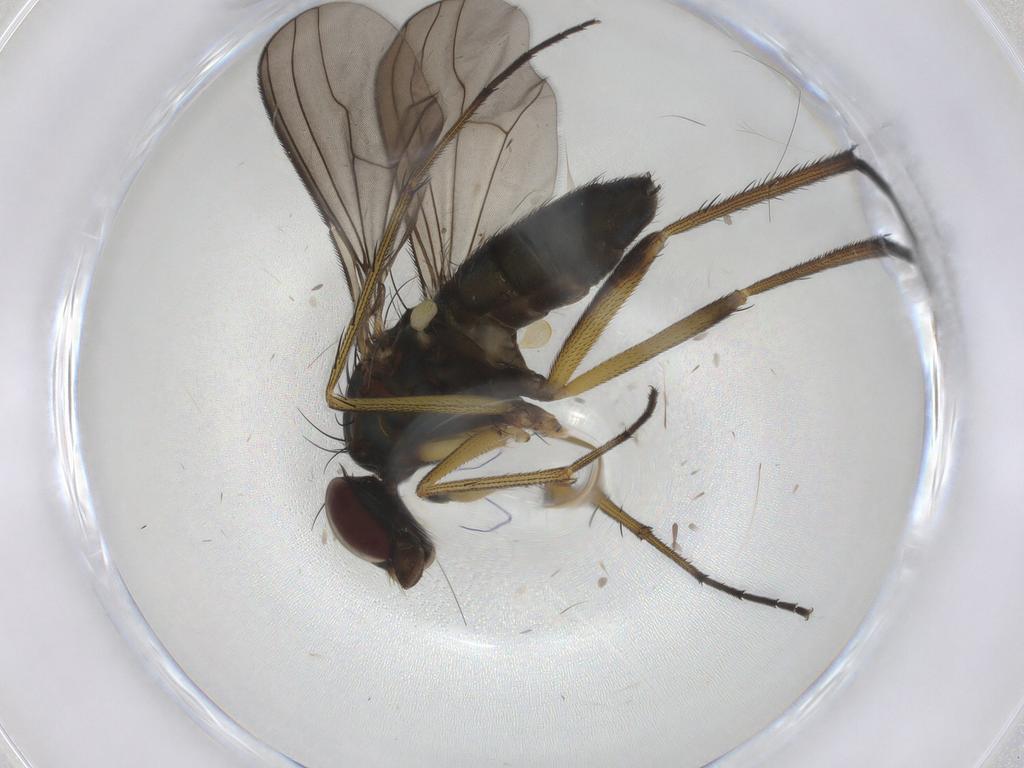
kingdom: Animalia
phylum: Arthropoda
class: Insecta
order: Diptera
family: Dolichopodidae
